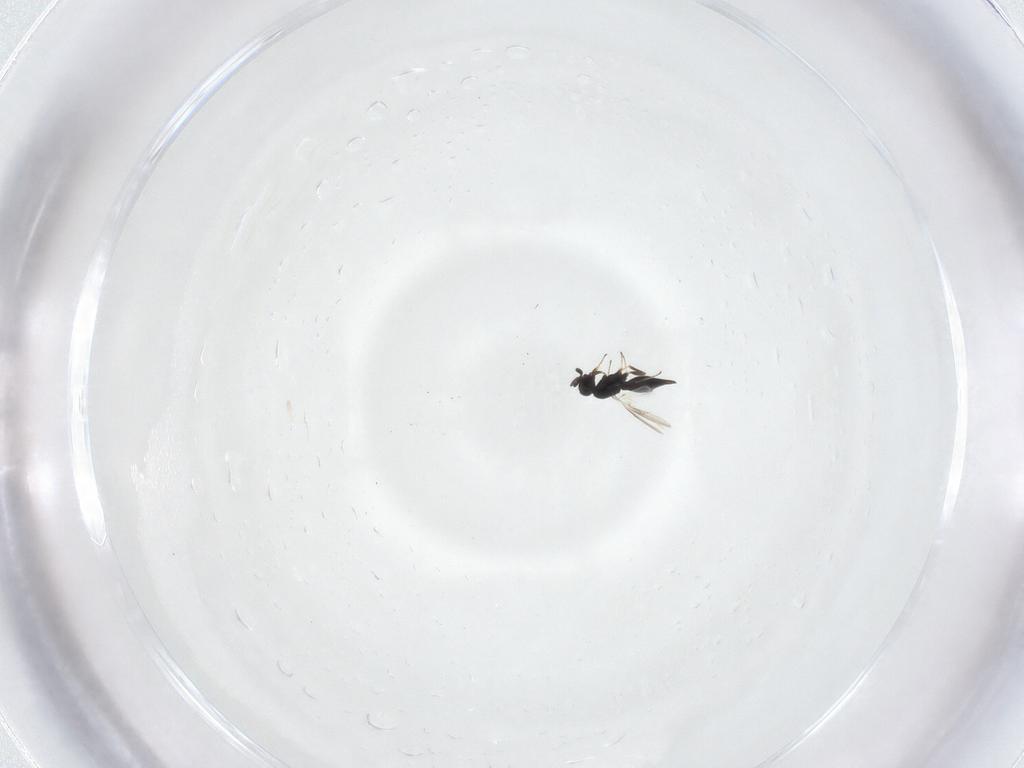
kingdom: Animalia
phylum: Arthropoda
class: Insecta
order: Hymenoptera
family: Scelionidae
